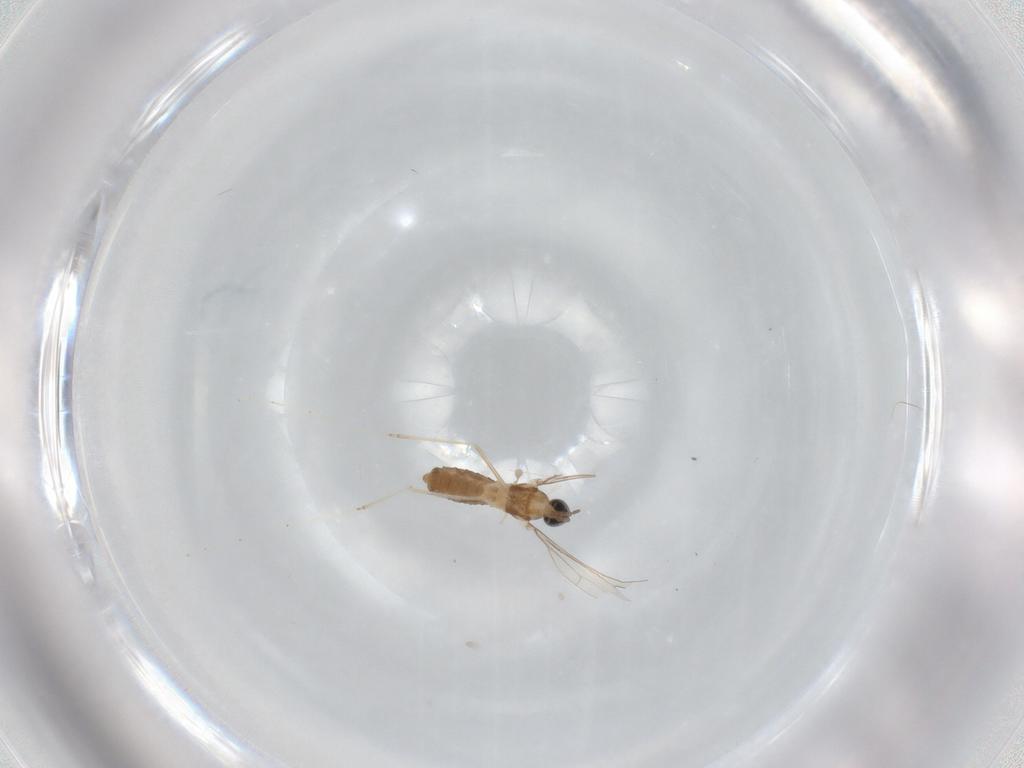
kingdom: Animalia
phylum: Arthropoda
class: Insecta
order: Diptera
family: Cecidomyiidae
